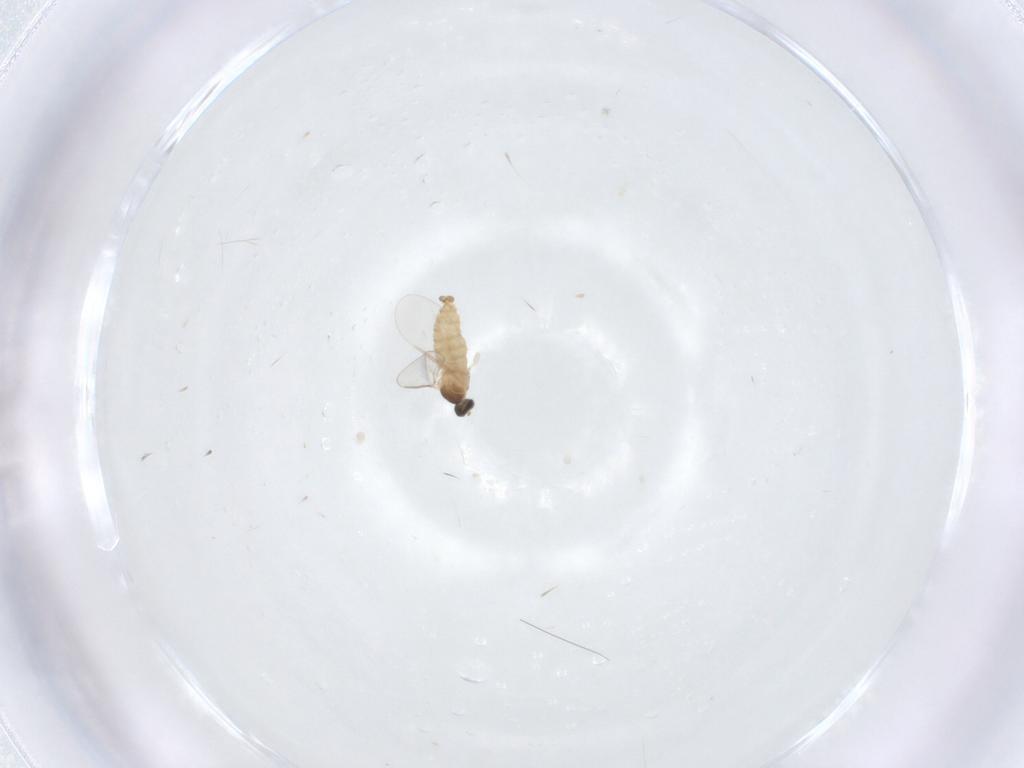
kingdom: Animalia
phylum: Arthropoda
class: Insecta
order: Diptera
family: Cecidomyiidae
